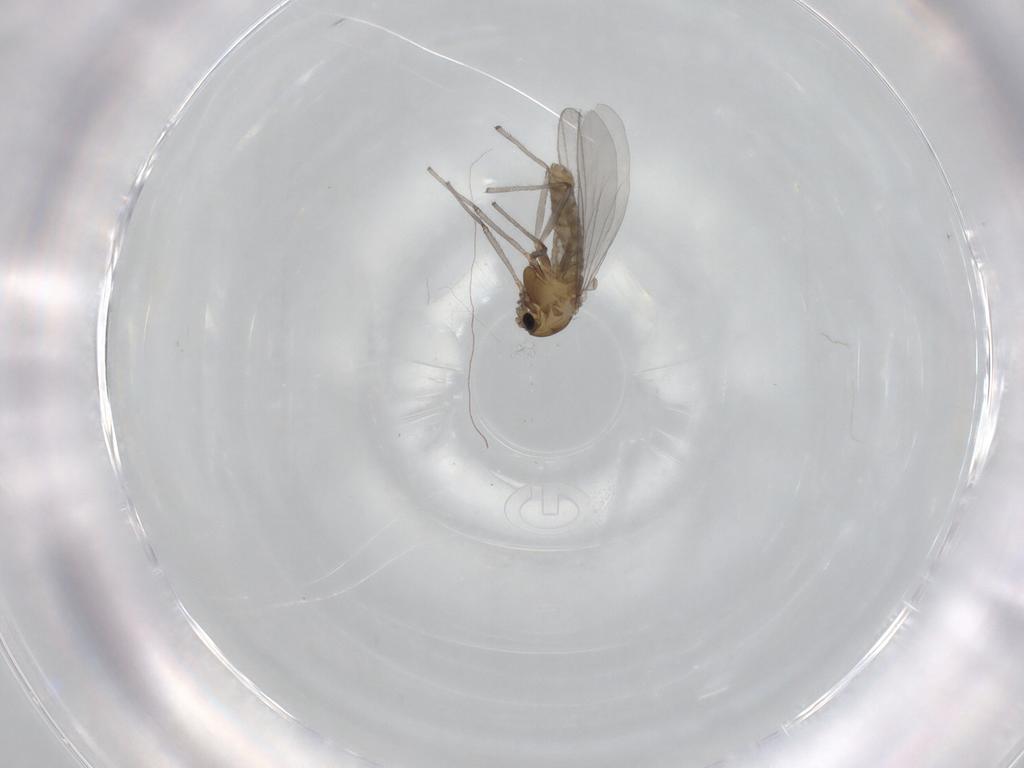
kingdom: Animalia
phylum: Arthropoda
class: Insecta
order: Diptera
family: Chironomidae
